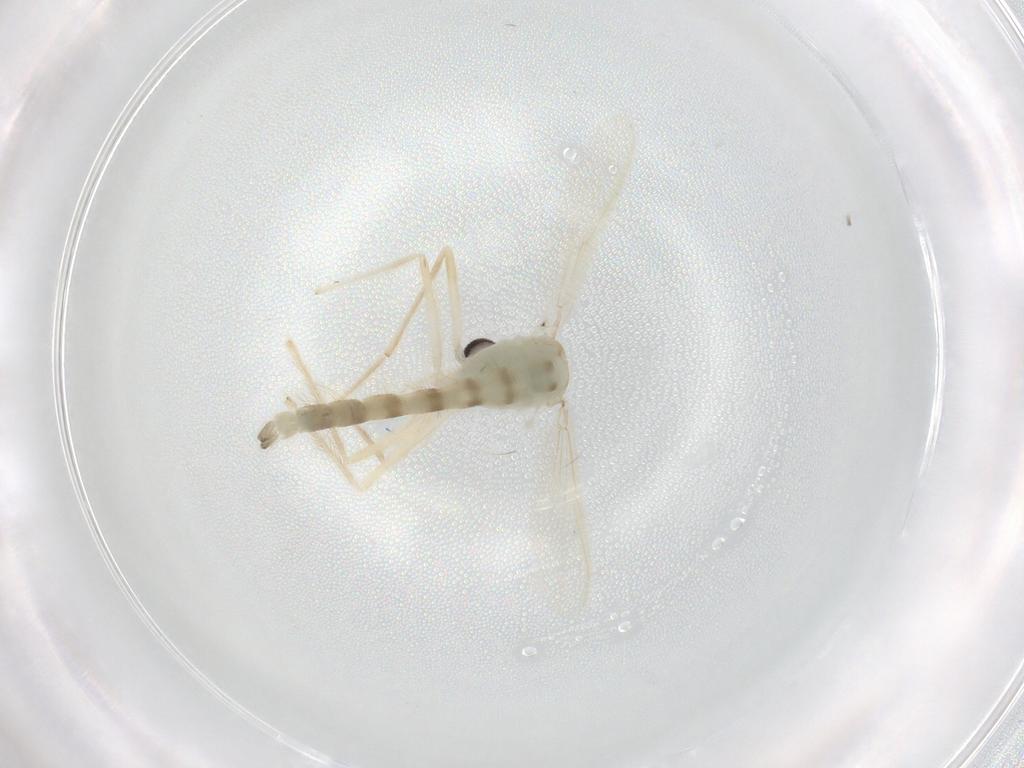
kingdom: Animalia
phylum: Arthropoda
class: Insecta
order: Diptera
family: Chironomidae
